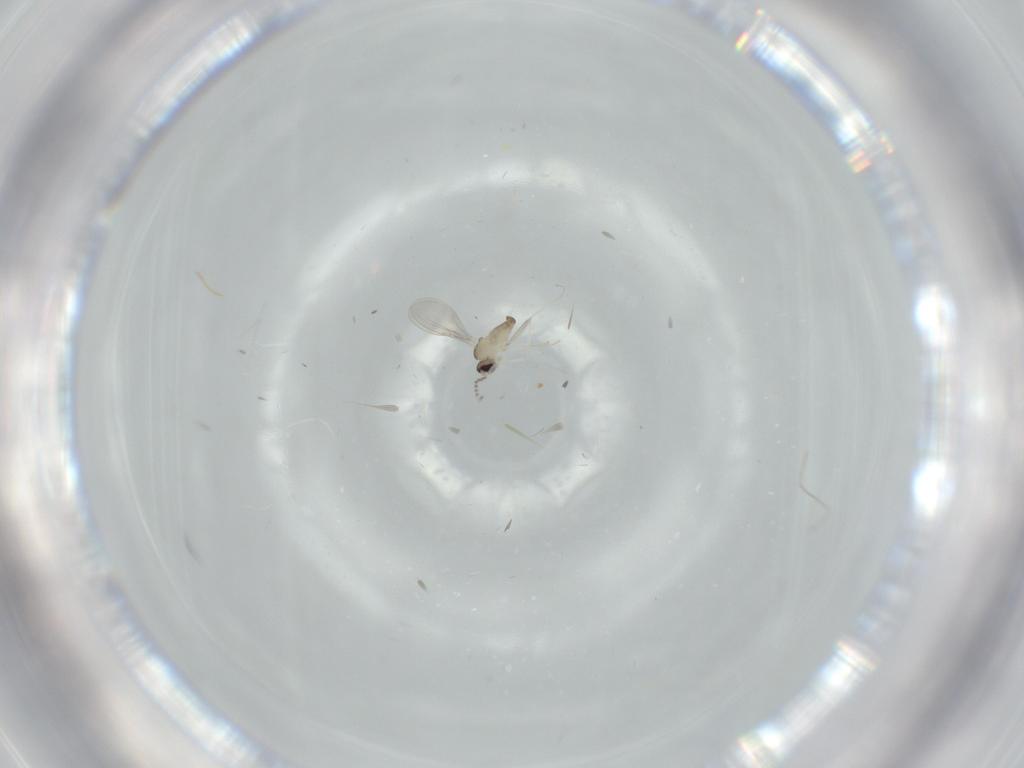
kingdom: Animalia
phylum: Arthropoda
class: Insecta
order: Diptera
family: Cecidomyiidae
